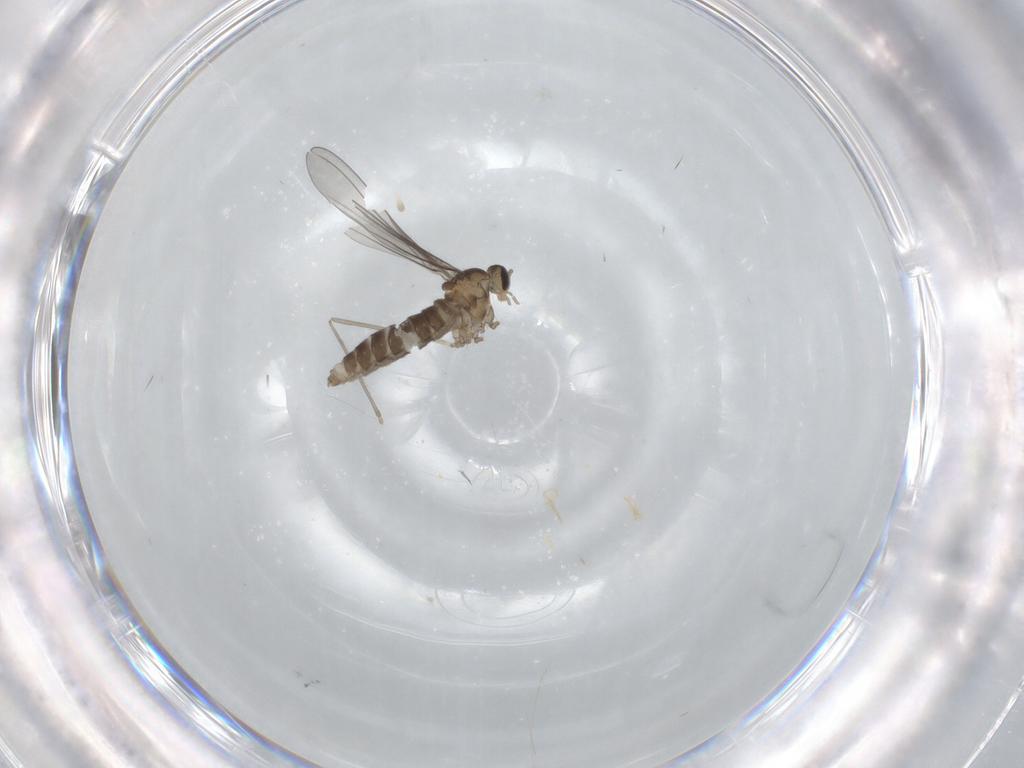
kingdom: Animalia
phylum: Arthropoda
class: Insecta
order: Diptera
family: Cecidomyiidae
